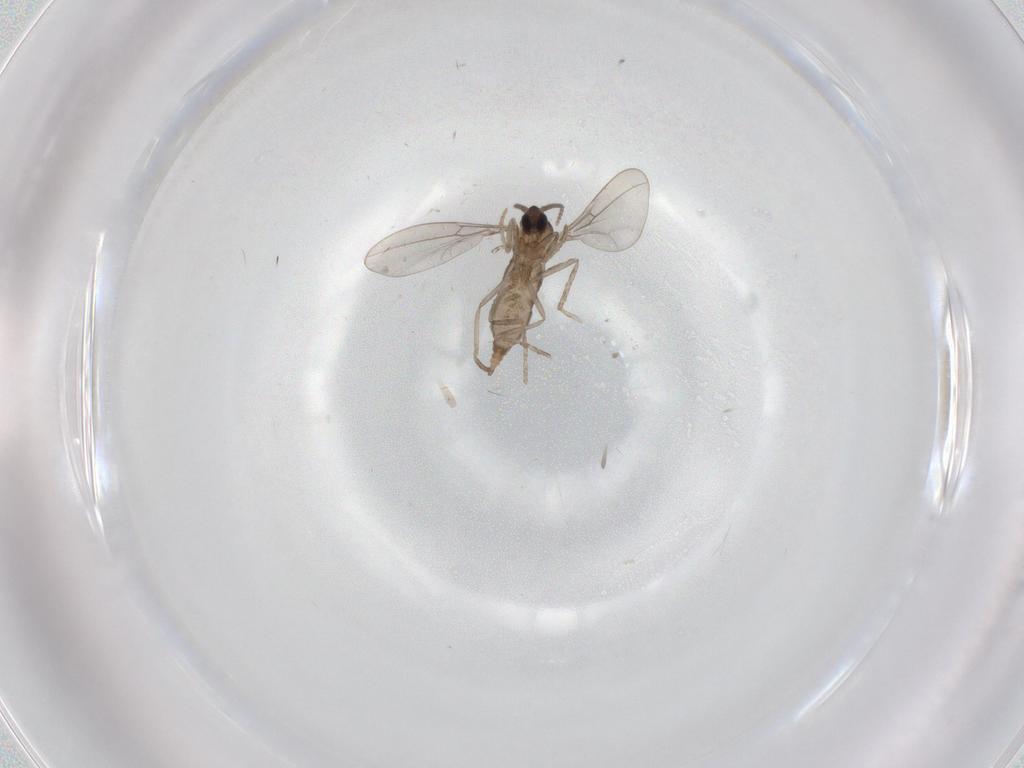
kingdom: Animalia
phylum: Arthropoda
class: Insecta
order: Diptera
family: Cecidomyiidae
